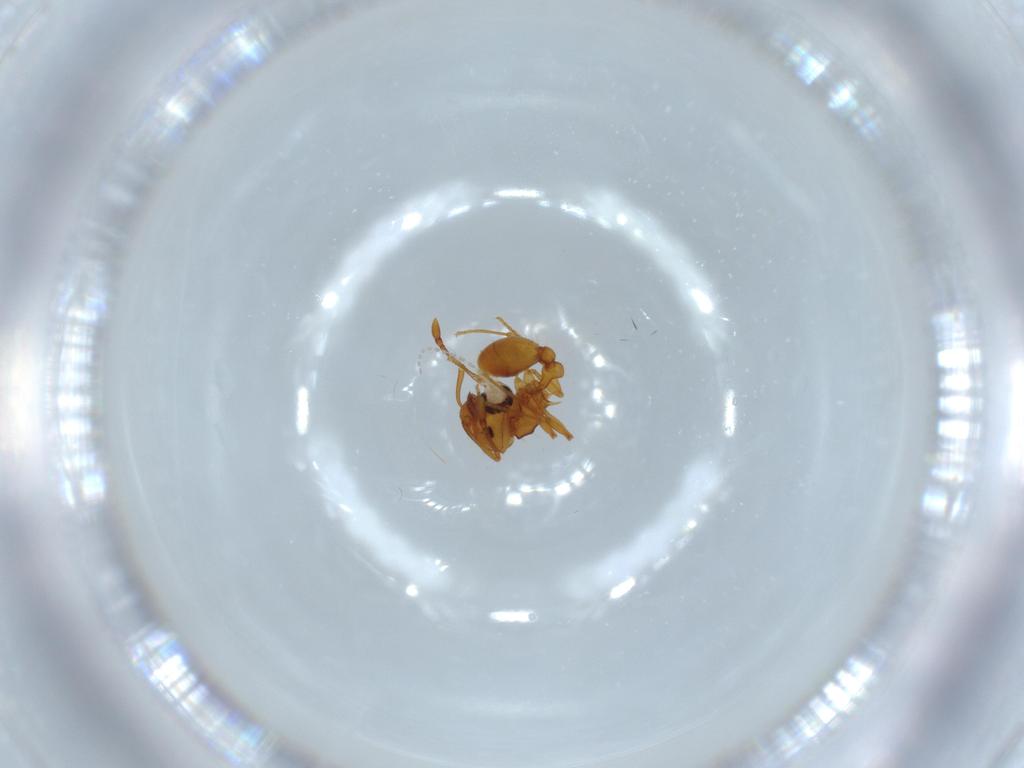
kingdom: Animalia
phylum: Arthropoda
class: Insecta
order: Hymenoptera
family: Formicidae
